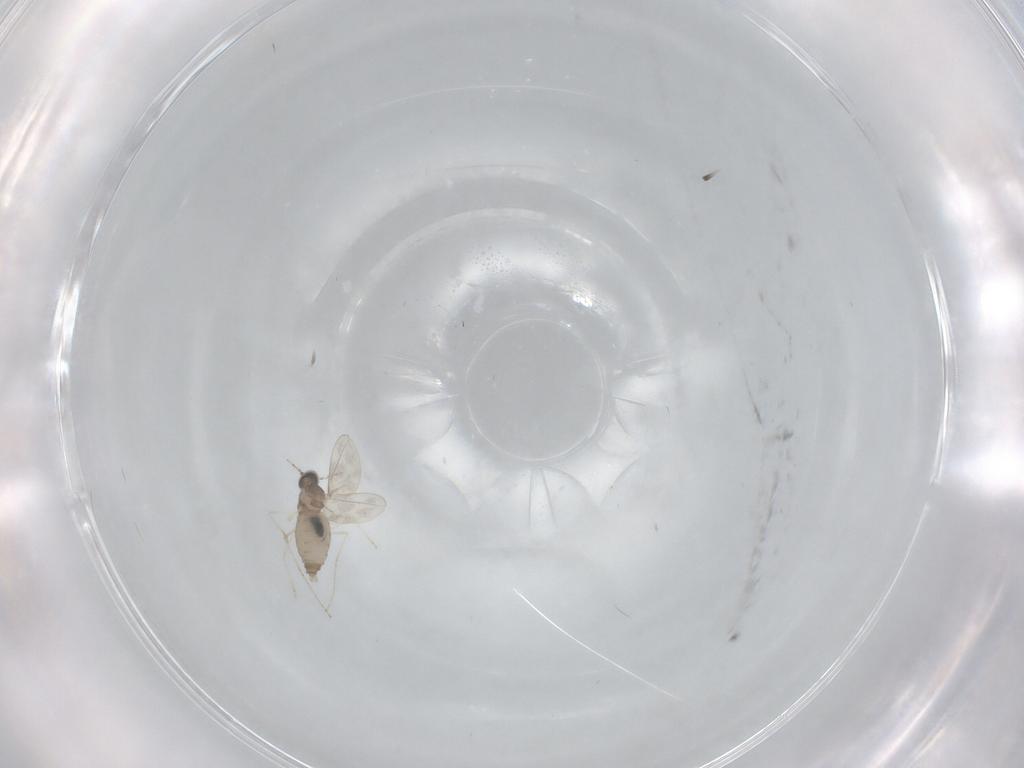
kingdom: Animalia
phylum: Arthropoda
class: Insecta
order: Diptera
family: Cecidomyiidae
